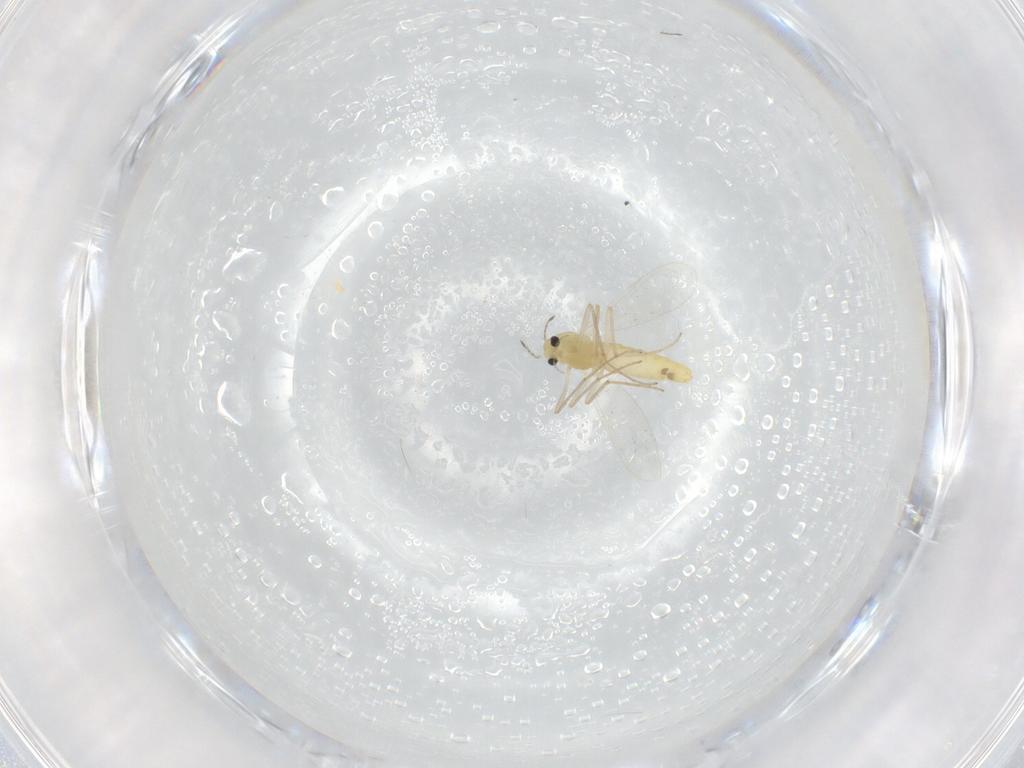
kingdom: Animalia
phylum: Arthropoda
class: Insecta
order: Diptera
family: Chironomidae
